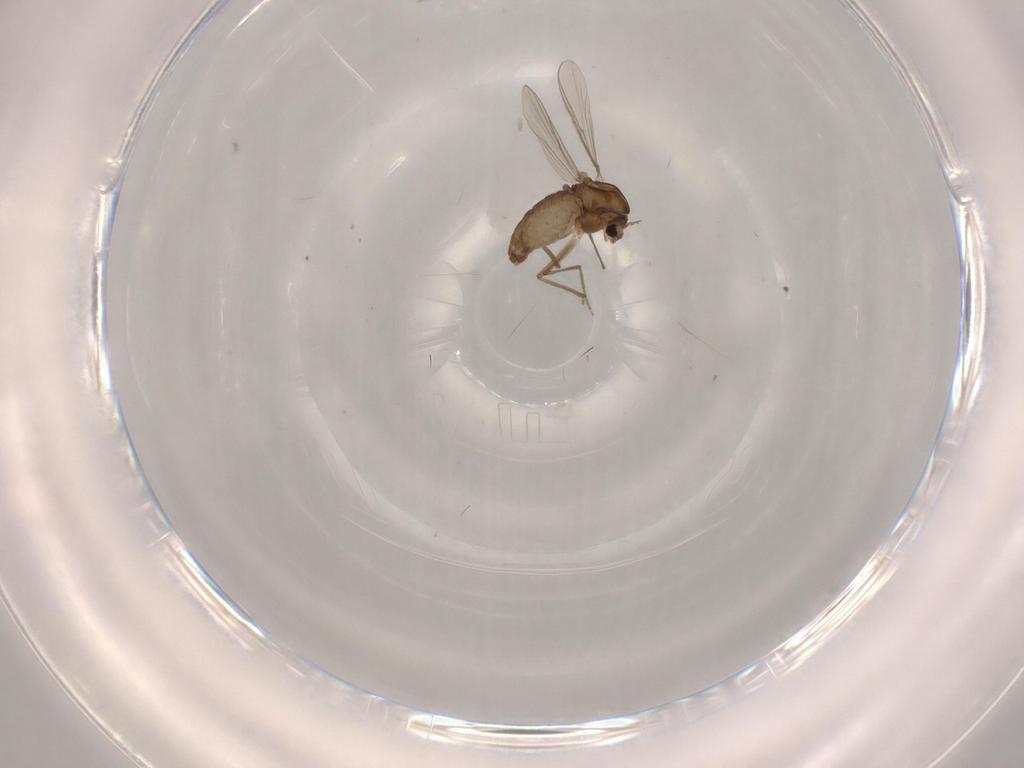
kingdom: Animalia
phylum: Arthropoda
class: Insecta
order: Diptera
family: Chironomidae
